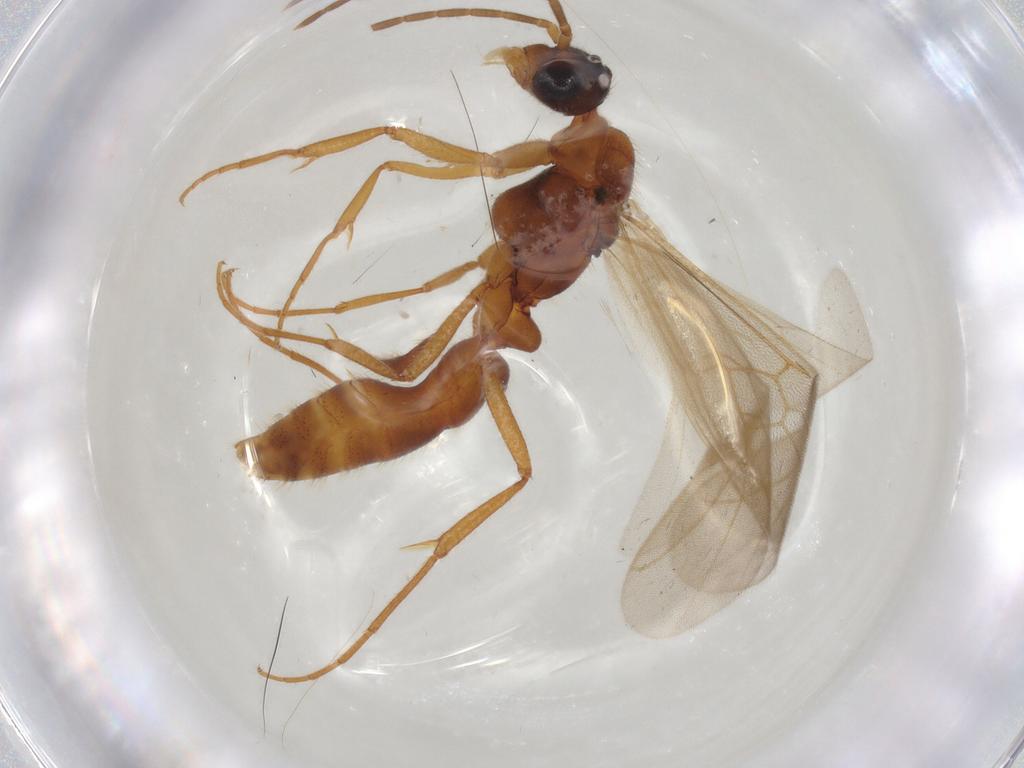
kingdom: Animalia
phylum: Arthropoda
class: Insecta
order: Hymenoptera
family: Formicidae
